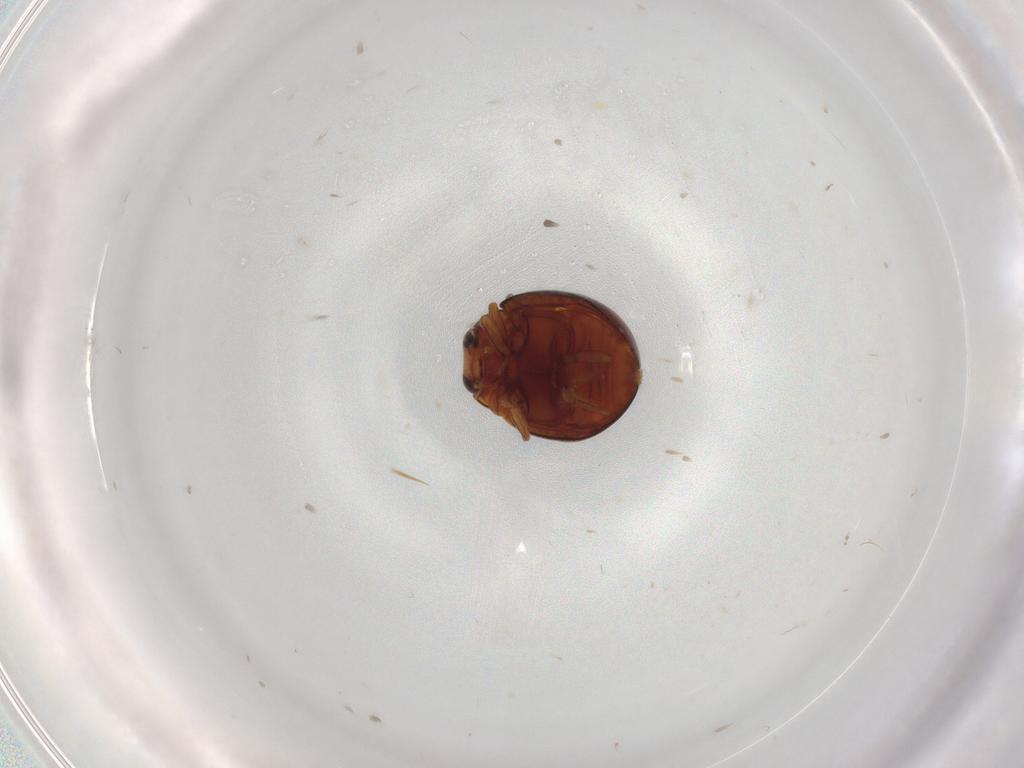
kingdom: Animalia
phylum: Arthropoda
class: Insecta
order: Coleoptera
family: Coccinellidae
